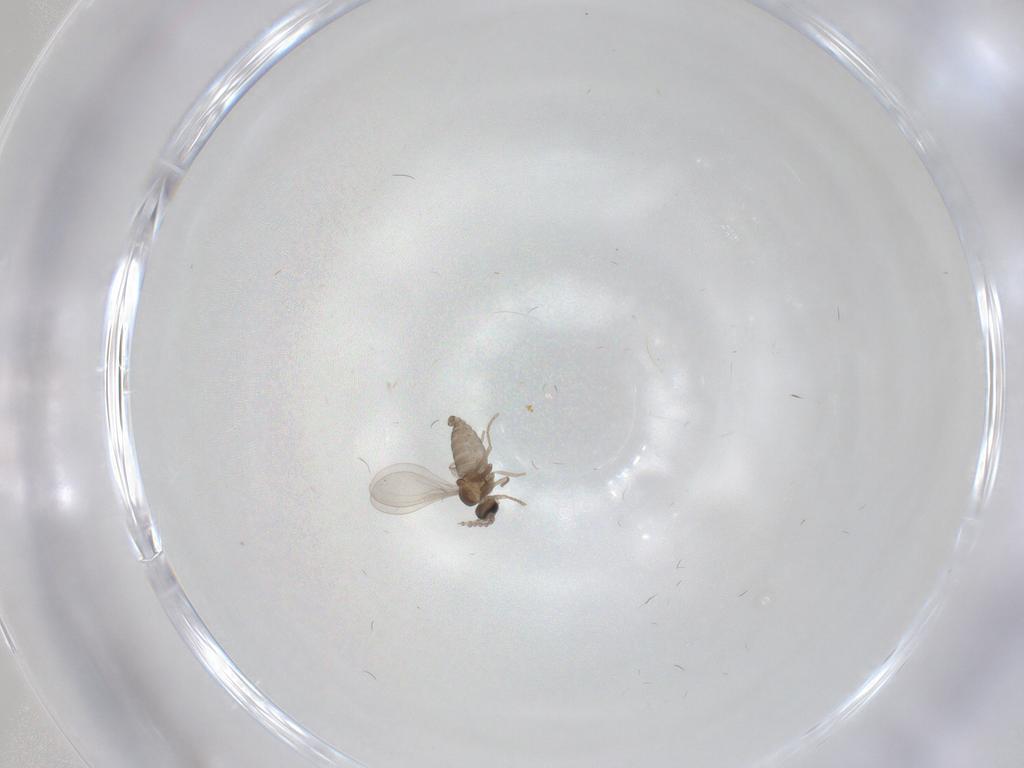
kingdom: Animalia
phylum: Arthropoda
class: Insecta
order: Diptera
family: Cecidomyiidae
